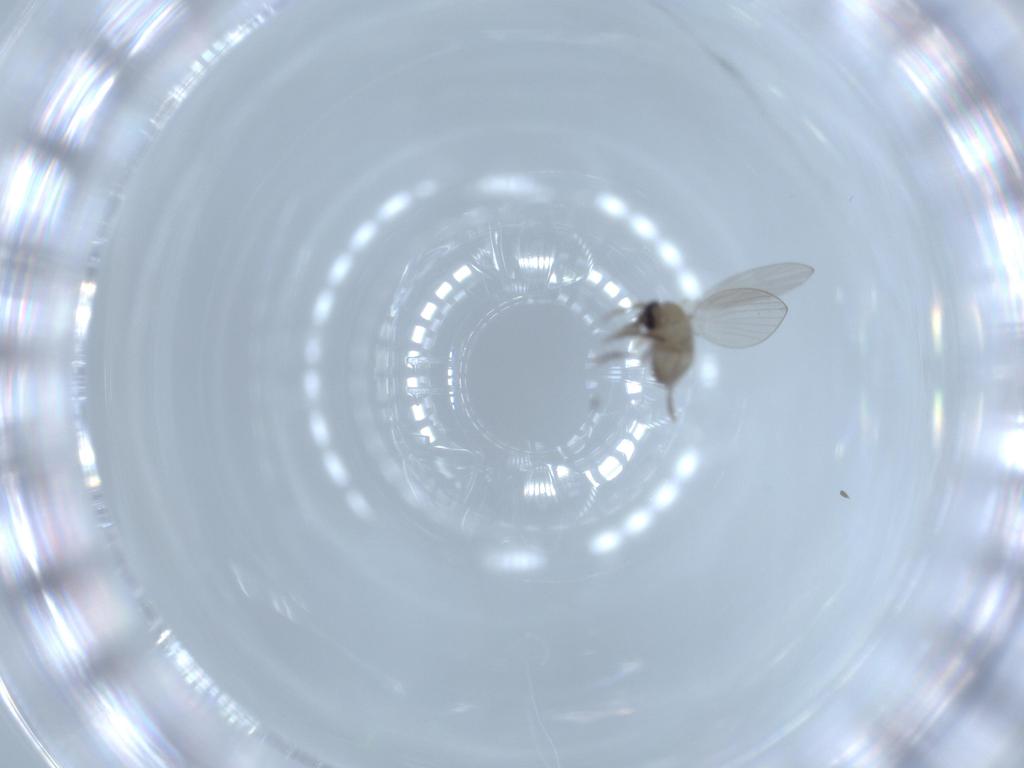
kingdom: Animalia
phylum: Arthropoda
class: Insecta
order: Diptera
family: Psychodidae
